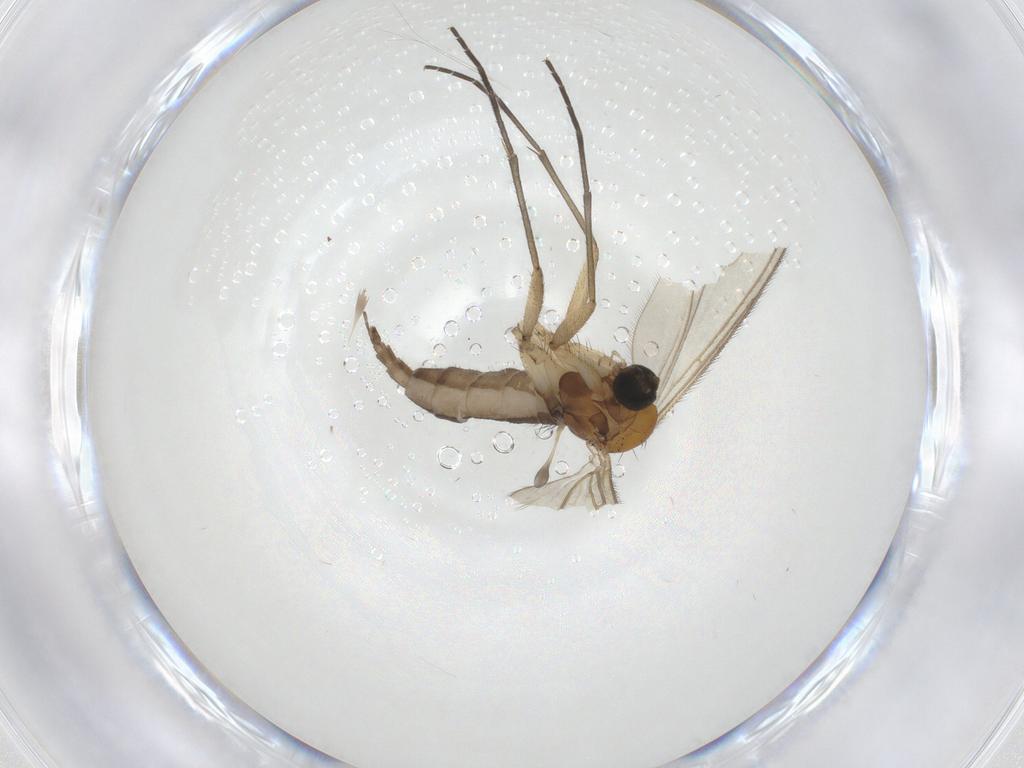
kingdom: Animalia
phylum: Arthropoda
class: Insecta
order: Diptera
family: Sciaridae
